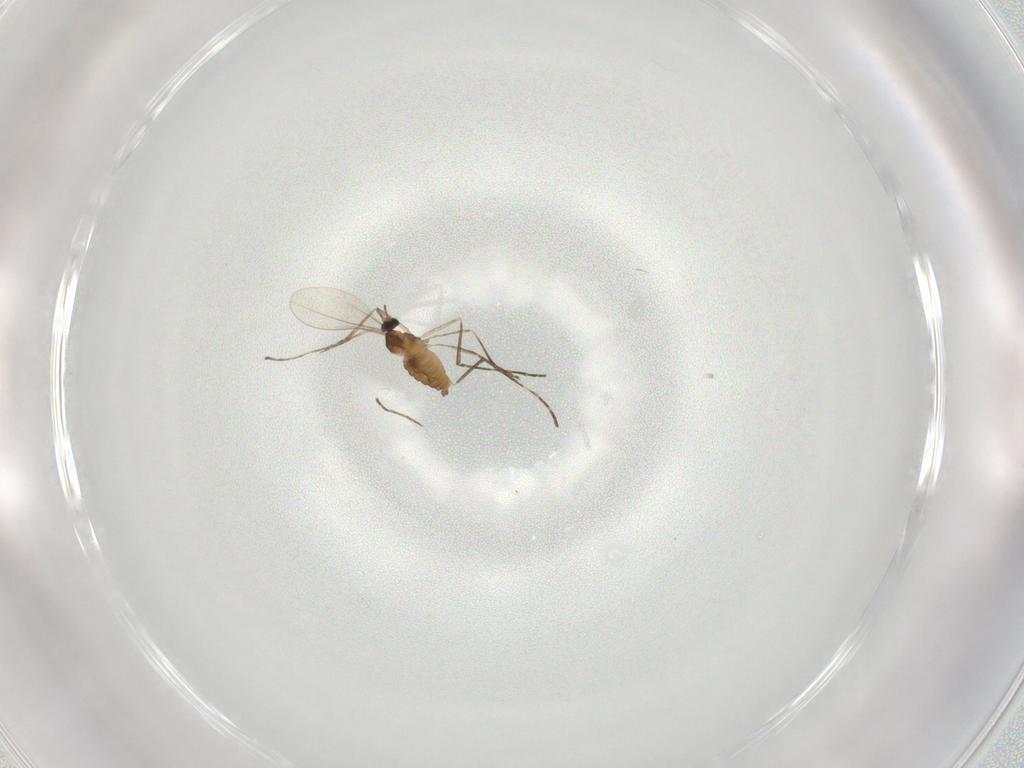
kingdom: Animalia
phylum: Arthropoda
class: Insecta
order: Diptera
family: Cecidomyiidae
